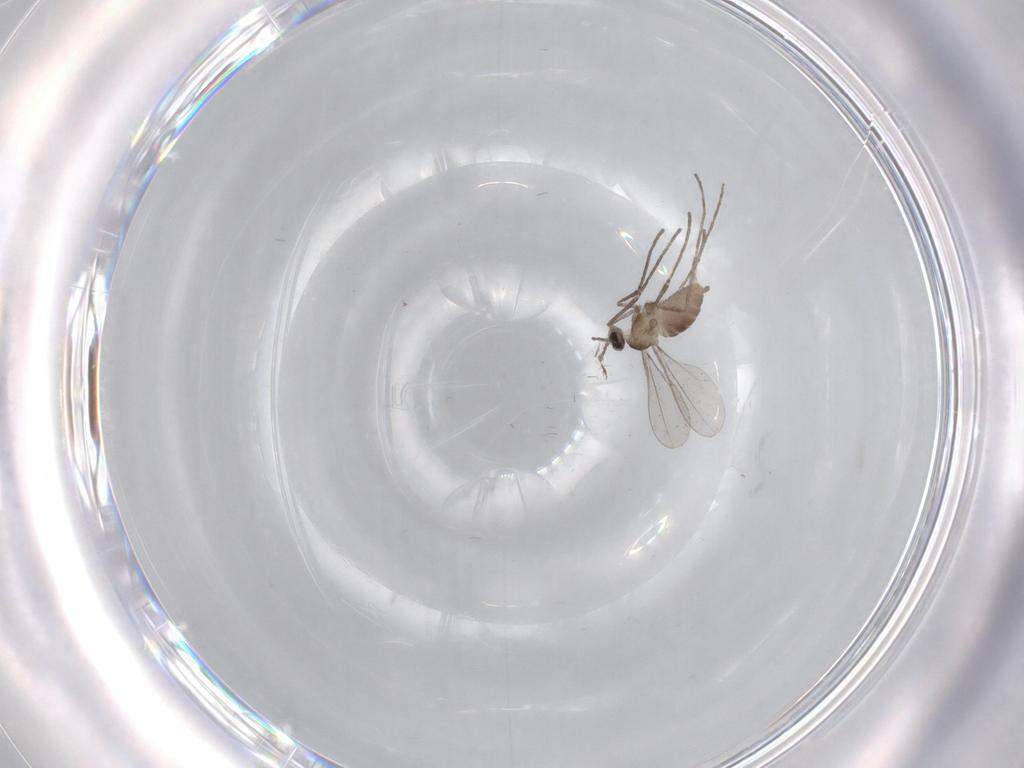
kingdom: Animalia
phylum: Arthropoda
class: Insecta
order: Diptera
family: Cecidomyiidae
